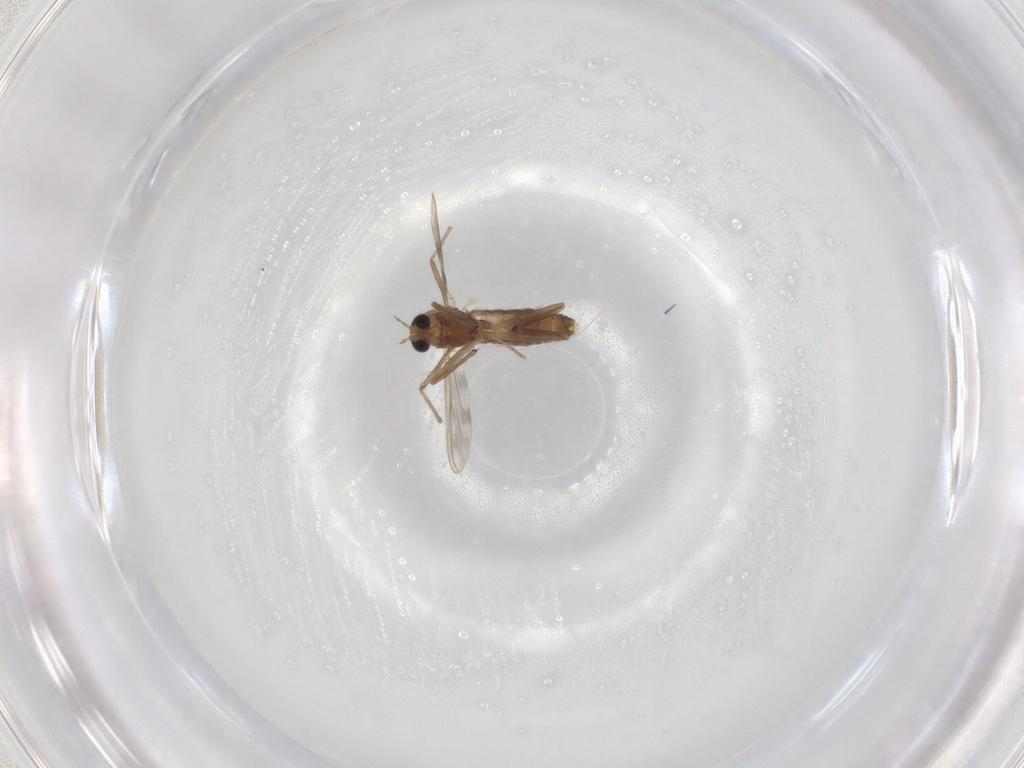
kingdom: Animalia
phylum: Arthropoda
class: Insecta
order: Diptera
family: Chironomidae
